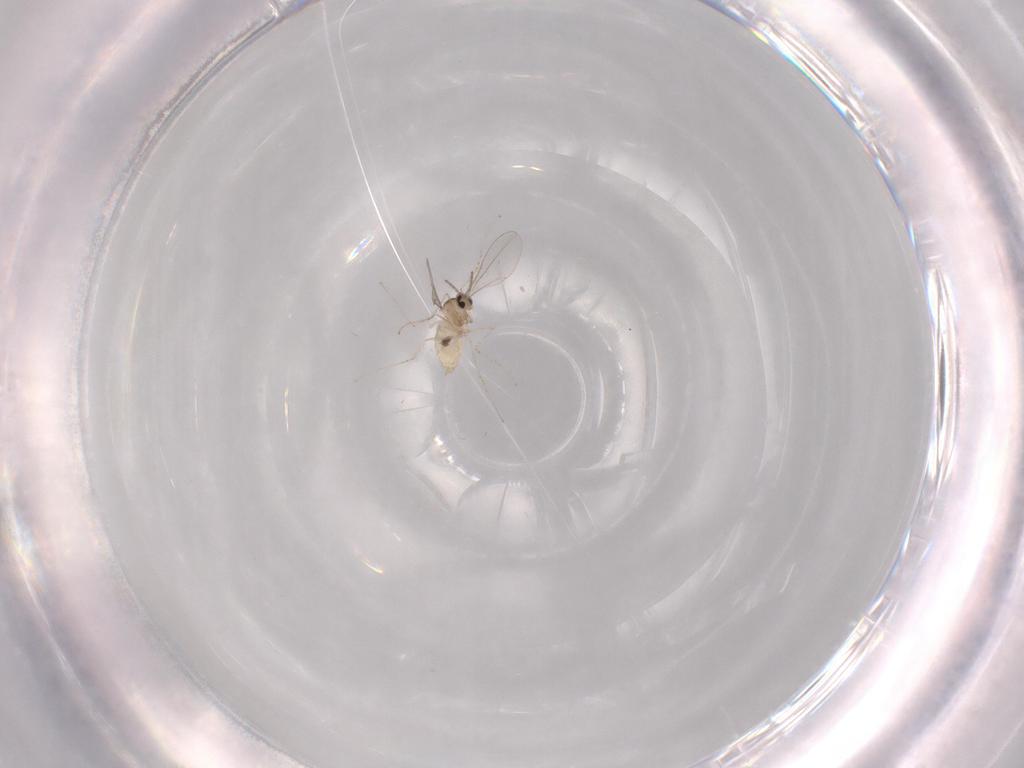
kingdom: Animalia
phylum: Arthropoda
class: Insecta
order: Diptera
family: Cecidomyiidae
